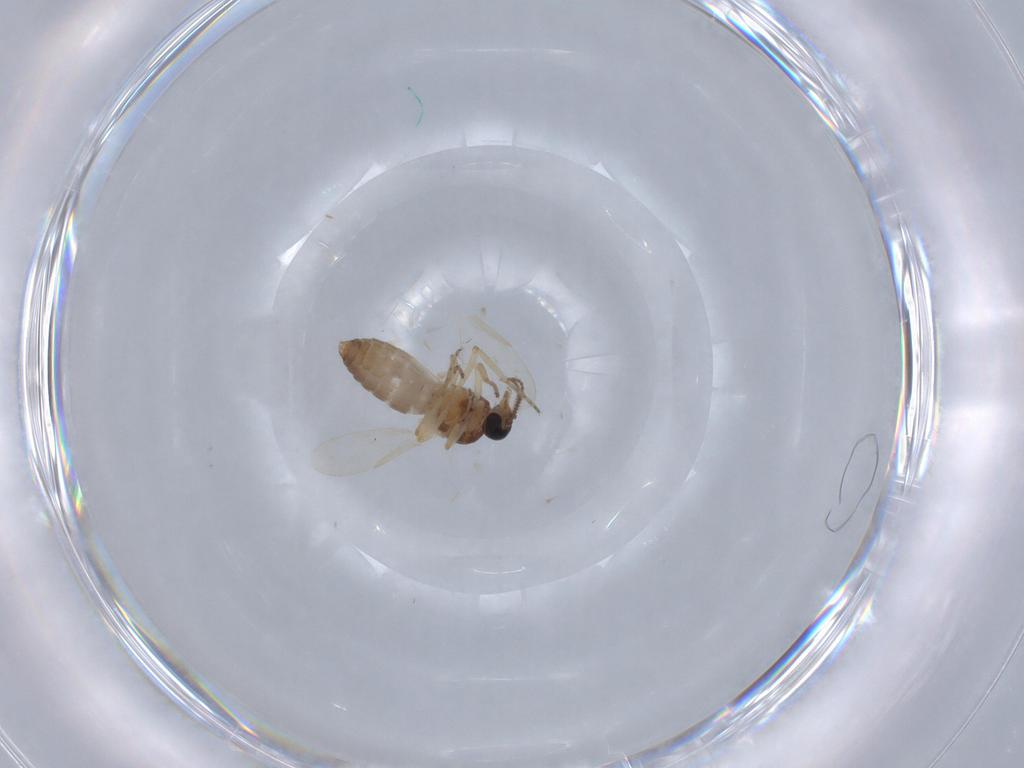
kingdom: Animalia
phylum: Arthropoda
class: Insecta
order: Diptera
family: Ceratopogonidae
